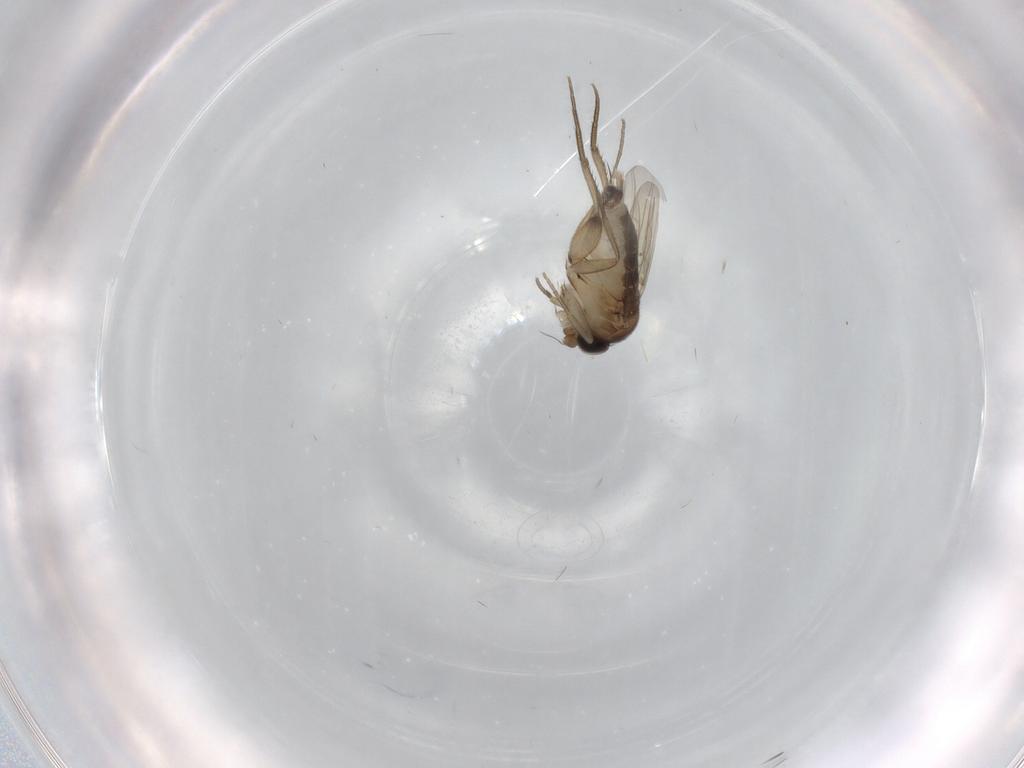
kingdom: Animalia
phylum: Arthropoda
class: Insecta
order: Diptera
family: Phoridae
